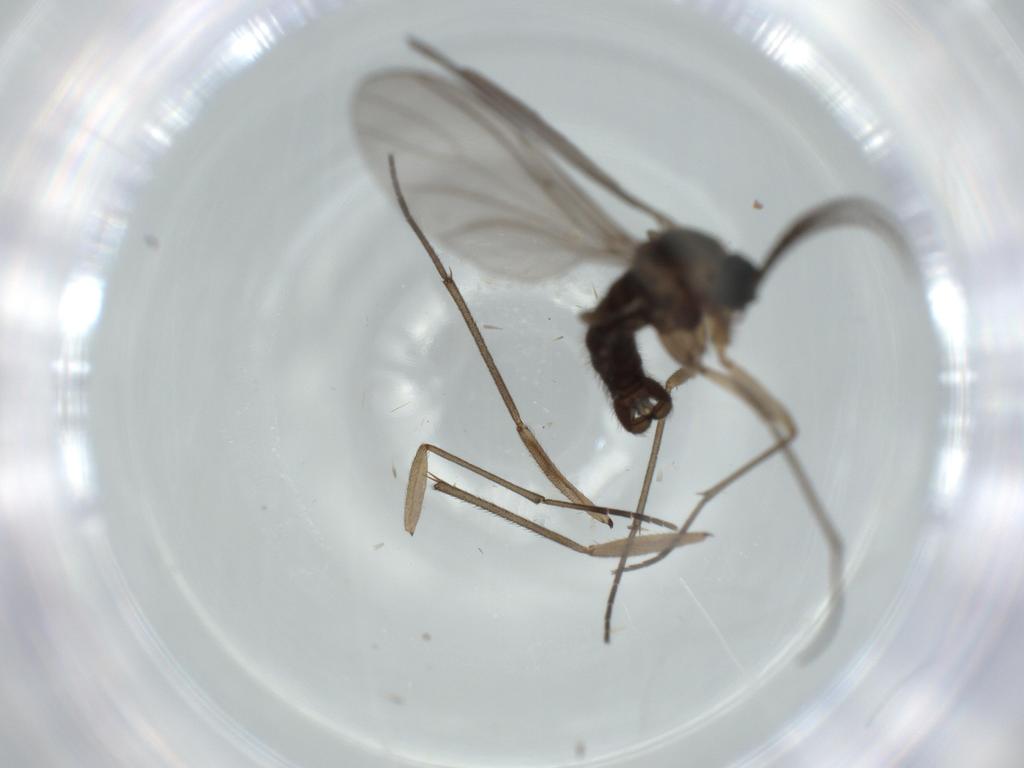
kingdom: Animalia
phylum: Arthropoda
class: Insecta
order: Diptera
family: Sciaridae
